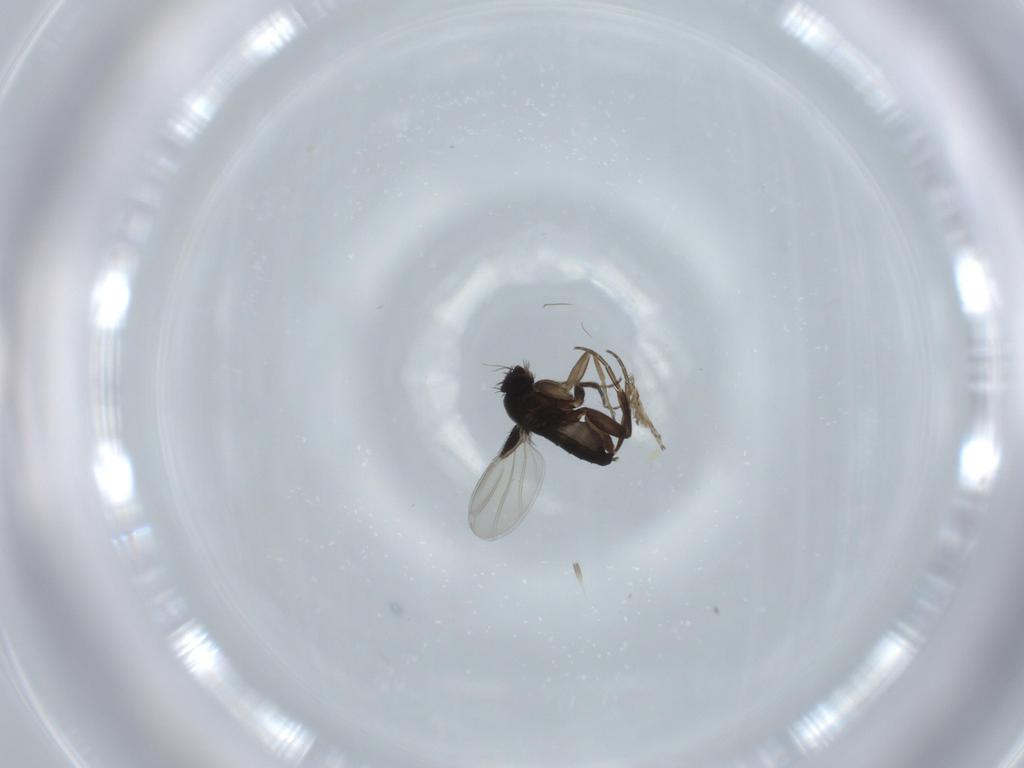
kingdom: Animalia
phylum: Arthropoda
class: Insecta
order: Diptera
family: Phoridae
